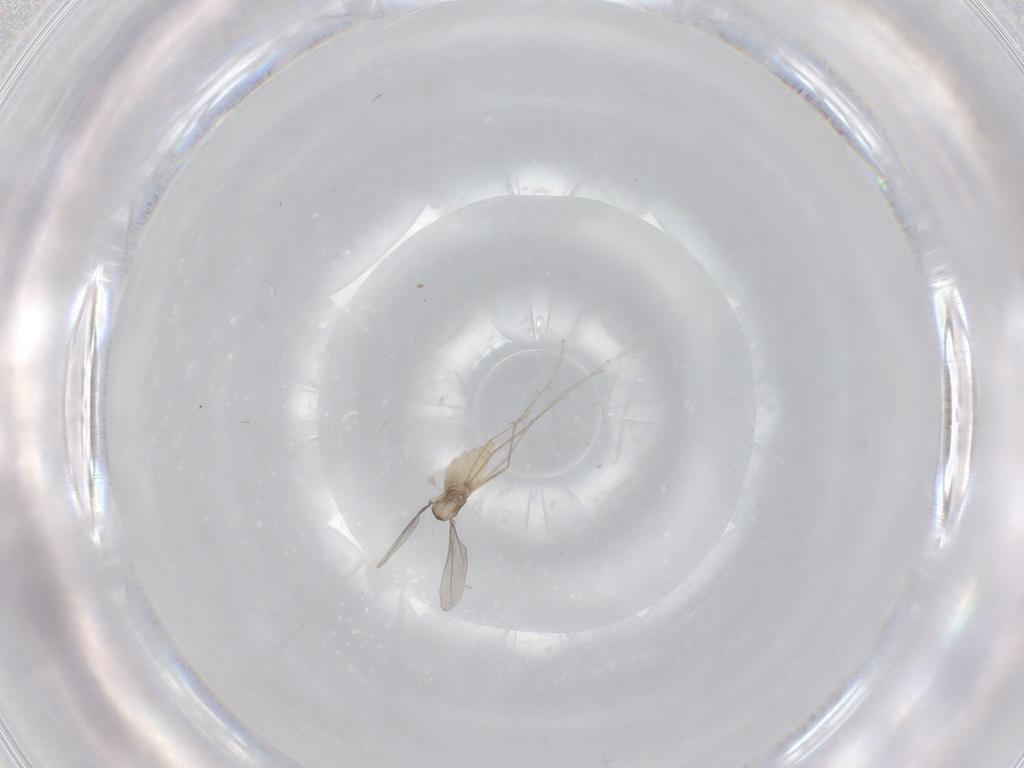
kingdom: Animalia
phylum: Arthropoda
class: Insecta
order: Diptera
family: Cecidomyiidae
